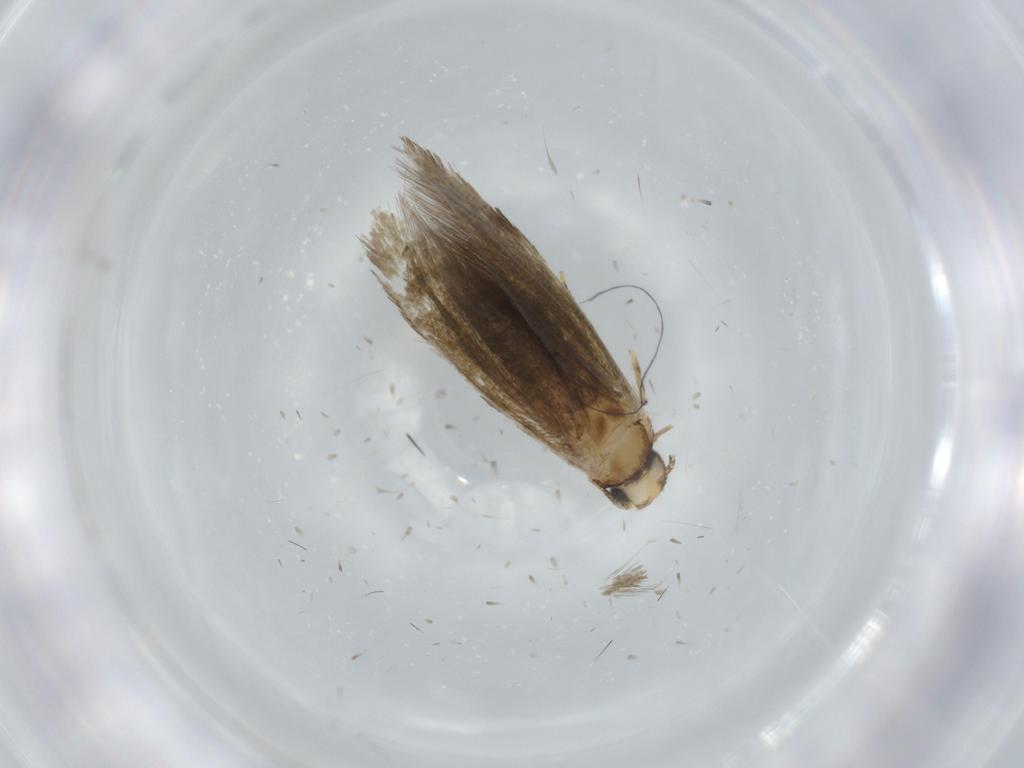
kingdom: Animalia
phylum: Arthropoda
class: Insecta
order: Lepidoptera
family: Tineidae
